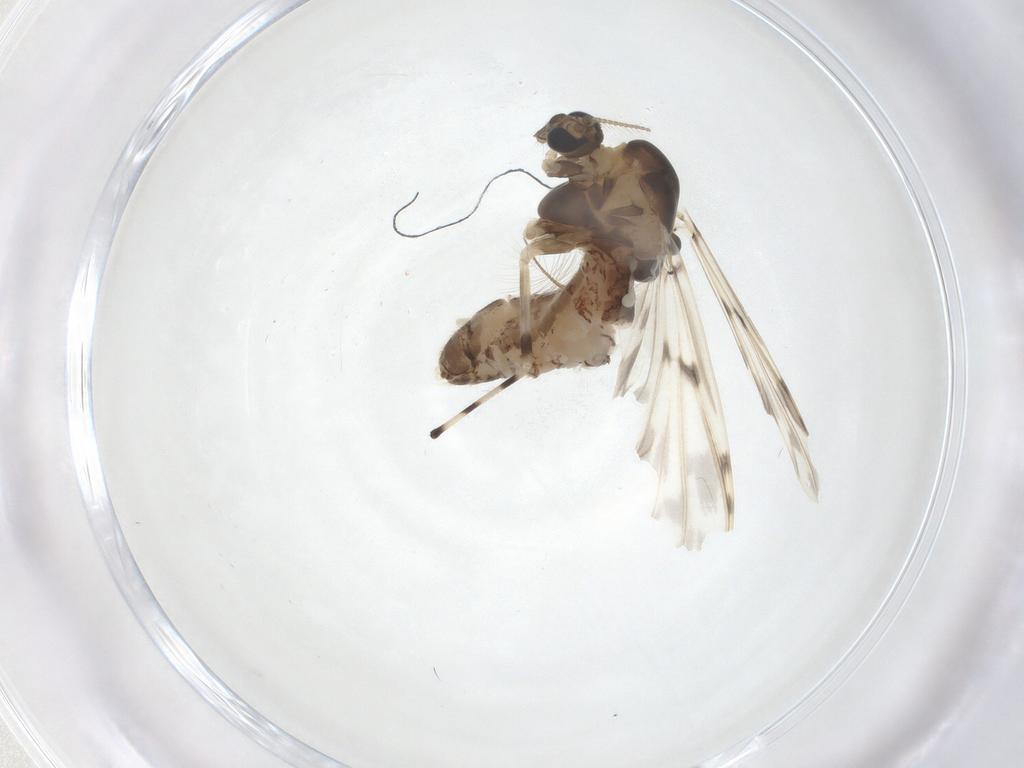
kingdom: Animalia
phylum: Arthropoda
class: Insecta
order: Diptera
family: Chironomidae
